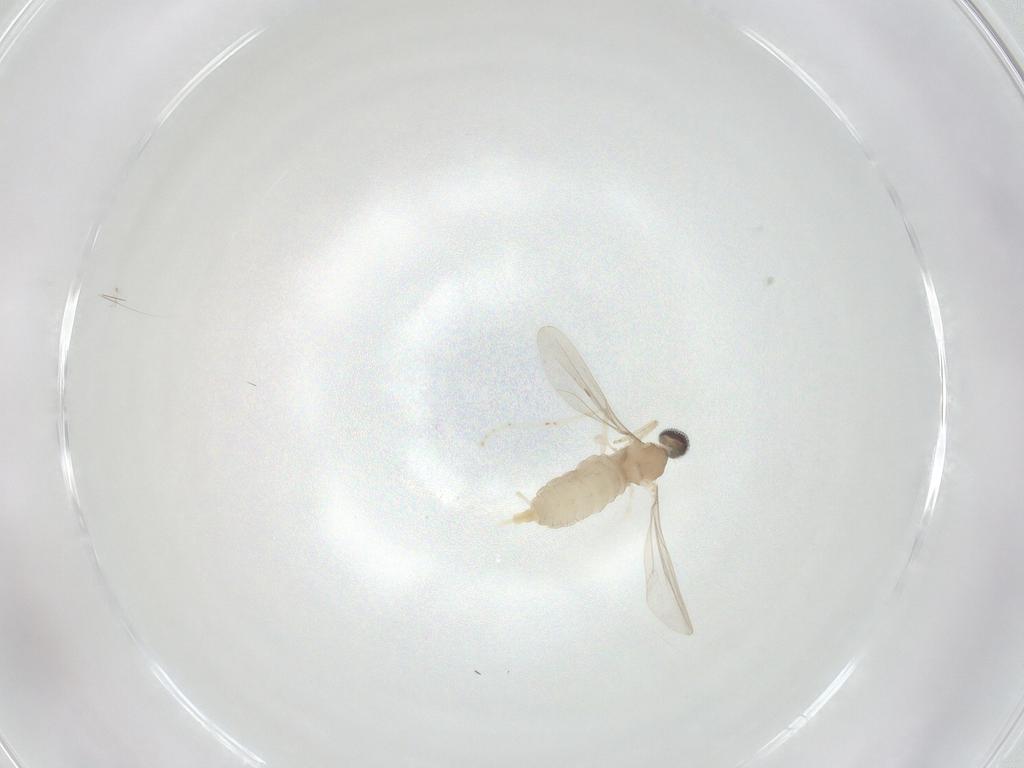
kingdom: Animalia
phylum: Arthropoda
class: Insecta
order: Diptera
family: Cecidomyiidae
